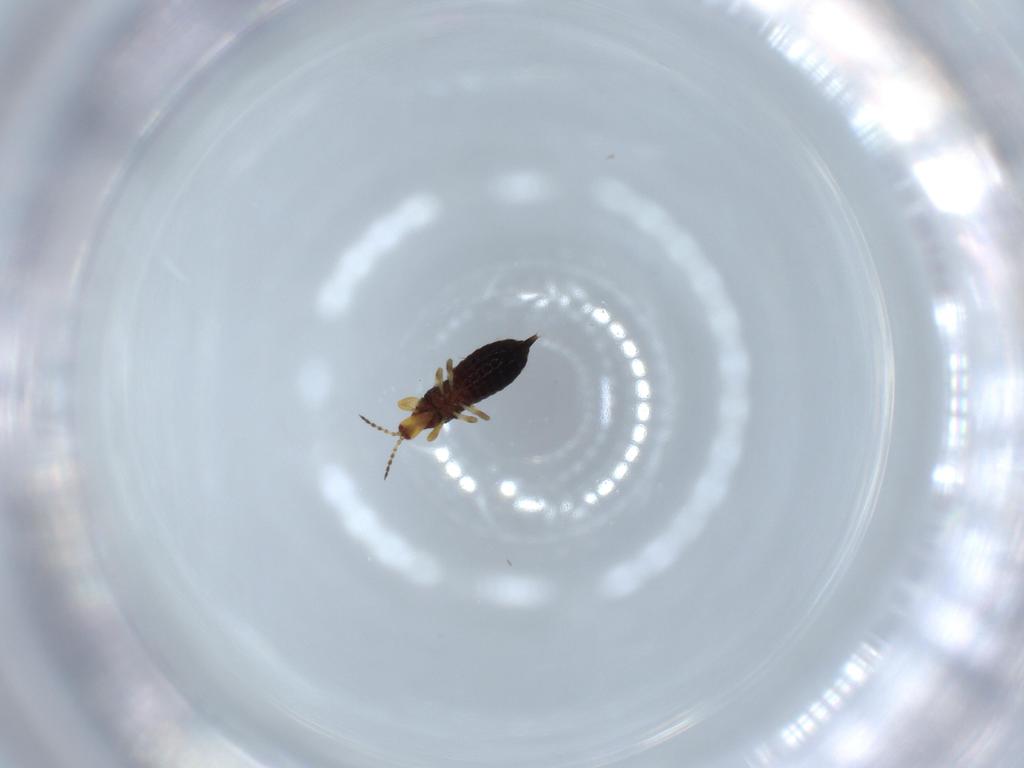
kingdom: Animalia
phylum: Arthropoda
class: Insecta
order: Thysanoptera
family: Phlaeothripidae
